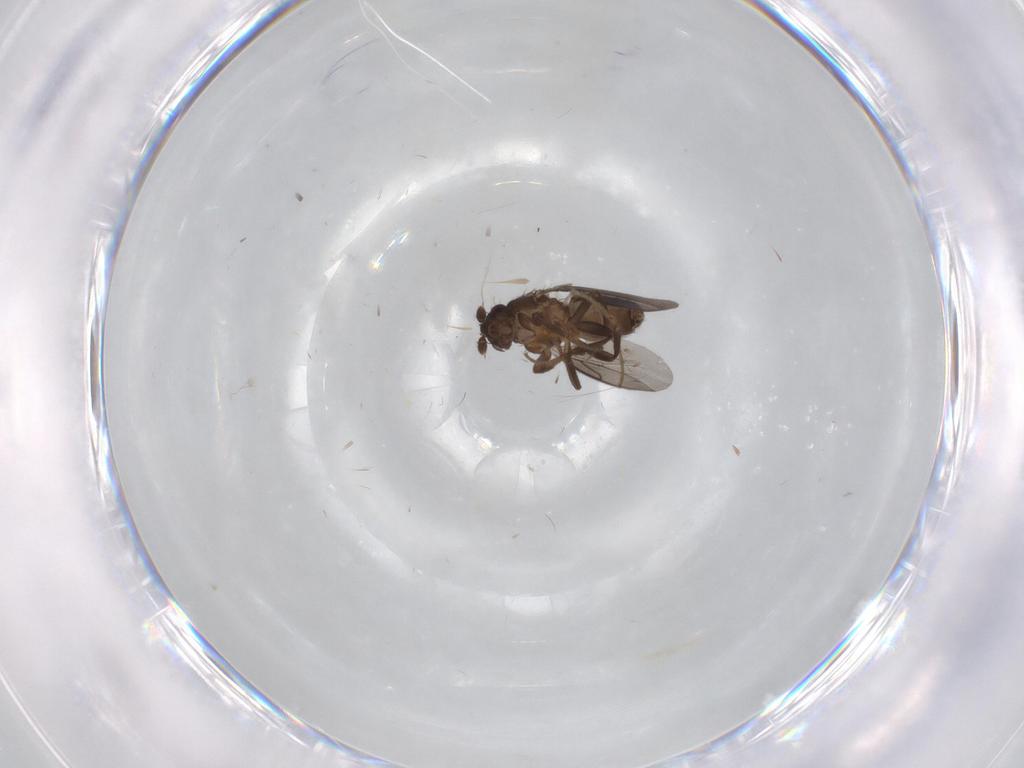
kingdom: Animalia
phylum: Arthropoda
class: Insecta
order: Diptera
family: Sphaeroceridae
